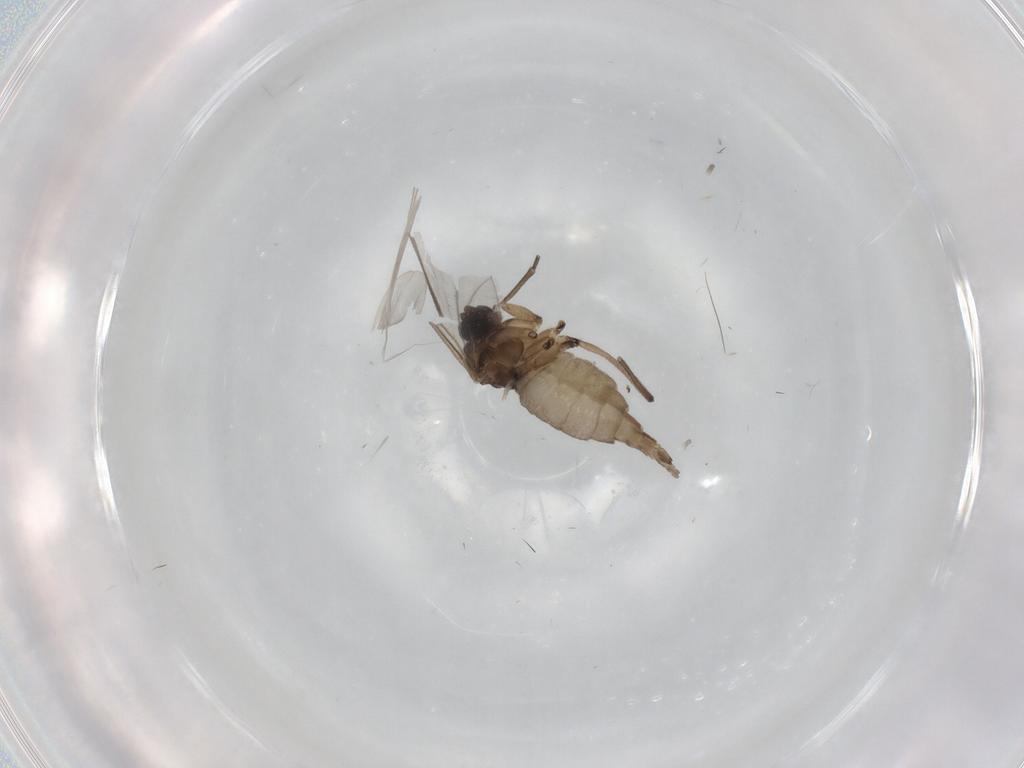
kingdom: Animalia
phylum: Arthropoda
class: Insecta
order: Diptera
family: Sciaridae
